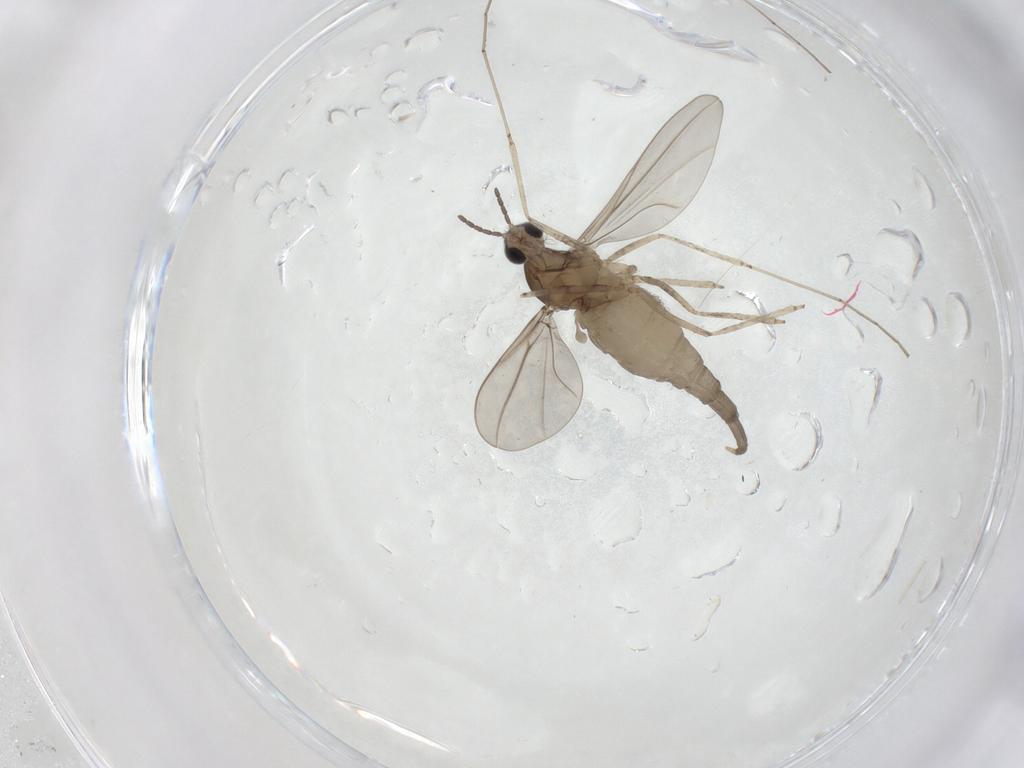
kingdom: Animalia
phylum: Arthropoda
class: Insecta
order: Diptera
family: Cecidomyiidae
